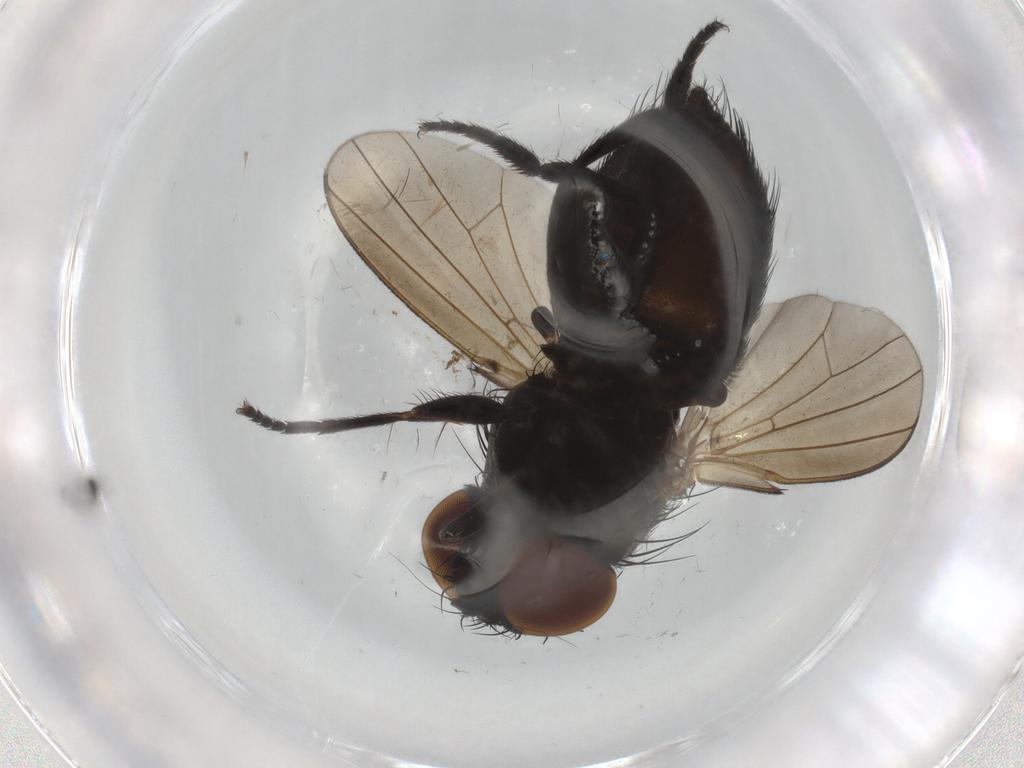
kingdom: Animalia
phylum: Arthropoda
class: Insecta
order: Diptera
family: Milichiidae
